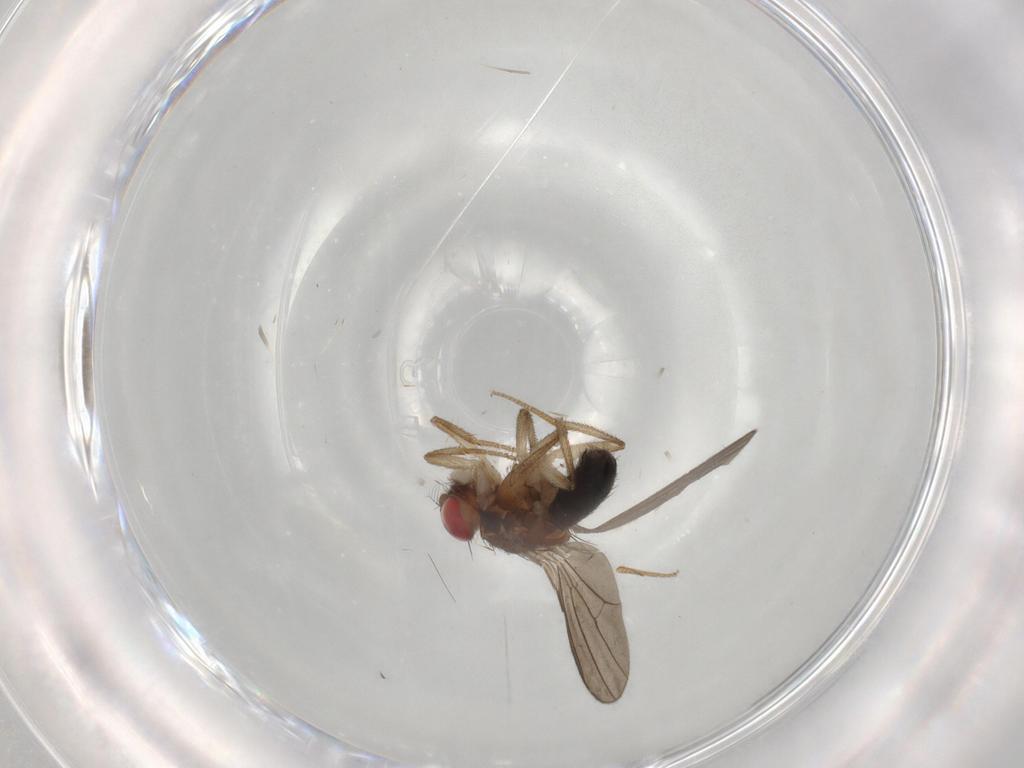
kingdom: Animalia
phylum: Arthropoda
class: Insecta
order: Diptera
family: Drosophilidae
